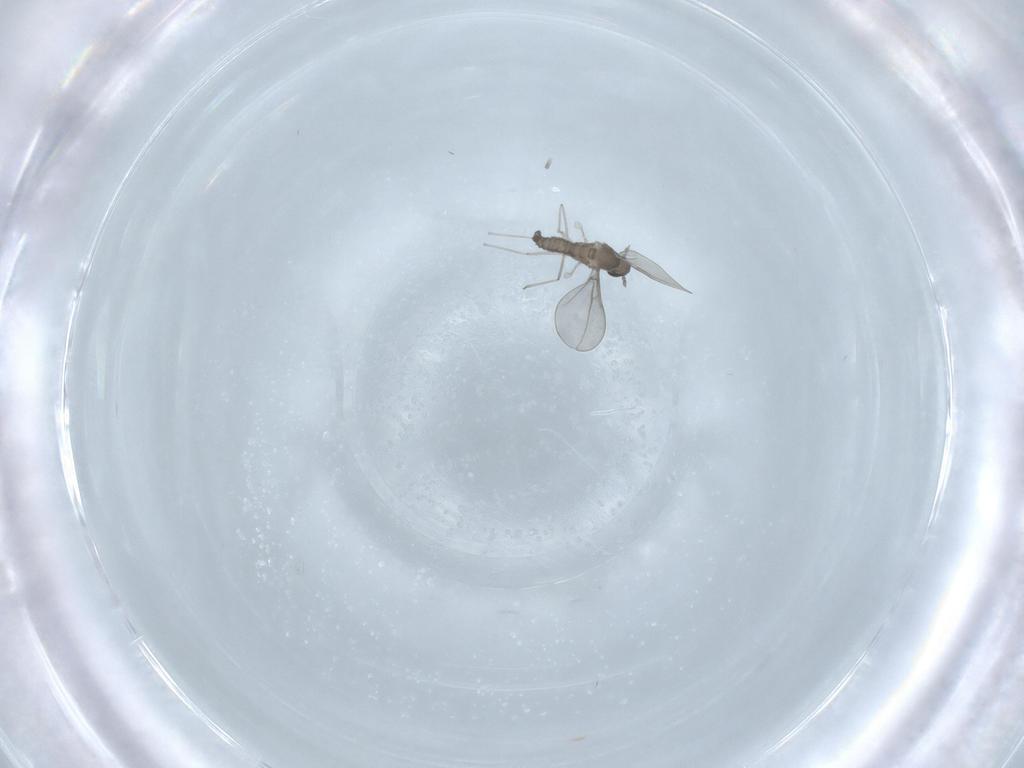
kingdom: Animalia
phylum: Arthropoda
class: Insecta
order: Diptera
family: Cecidomyiidae
